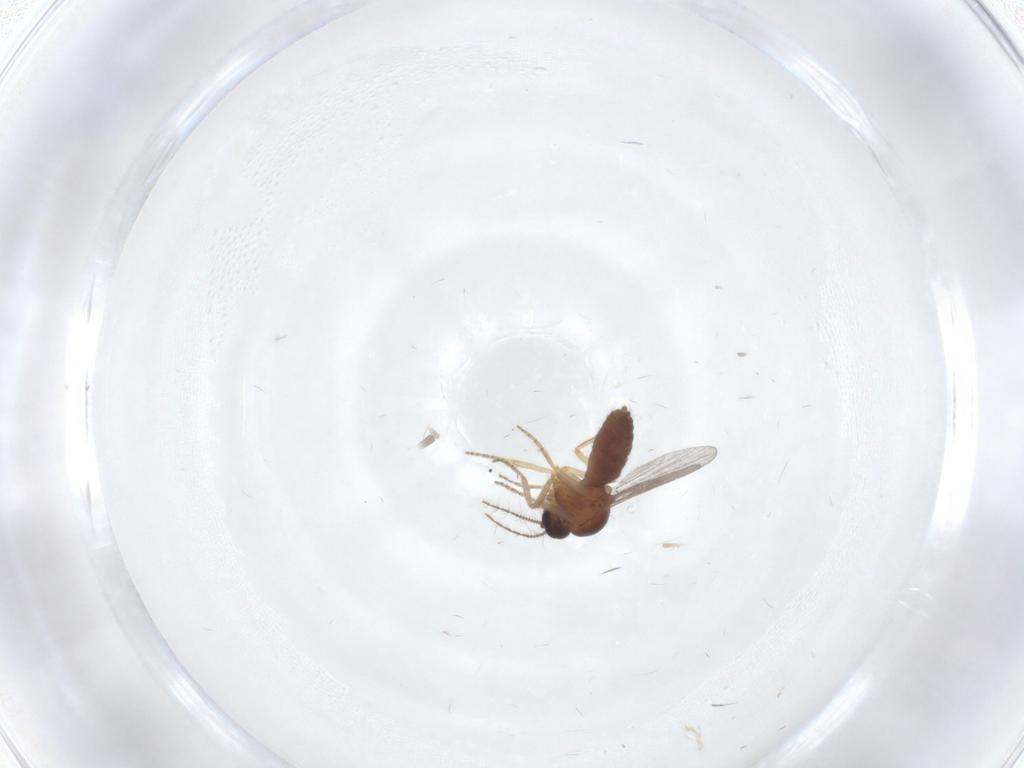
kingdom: Animalia
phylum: Arthropoda
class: Insecta
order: Diptera
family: Ceratopogonidae
